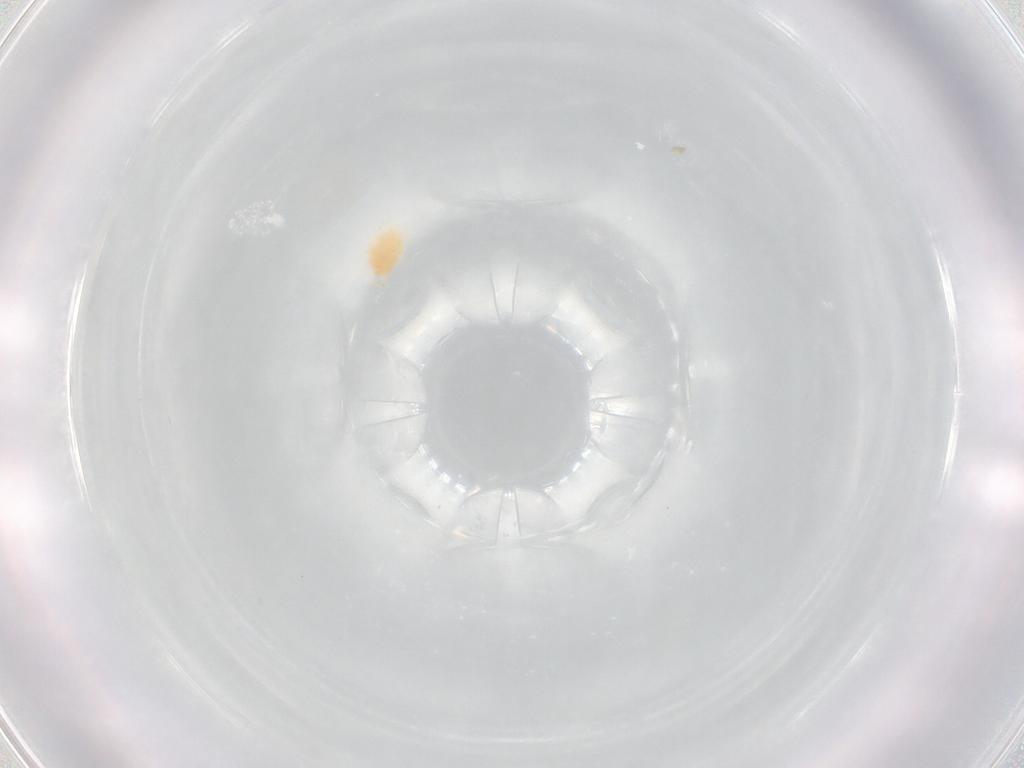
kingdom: Animalia
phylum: Arthropoda
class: Arachnida
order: Trombidiformes
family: Tetranychidae
